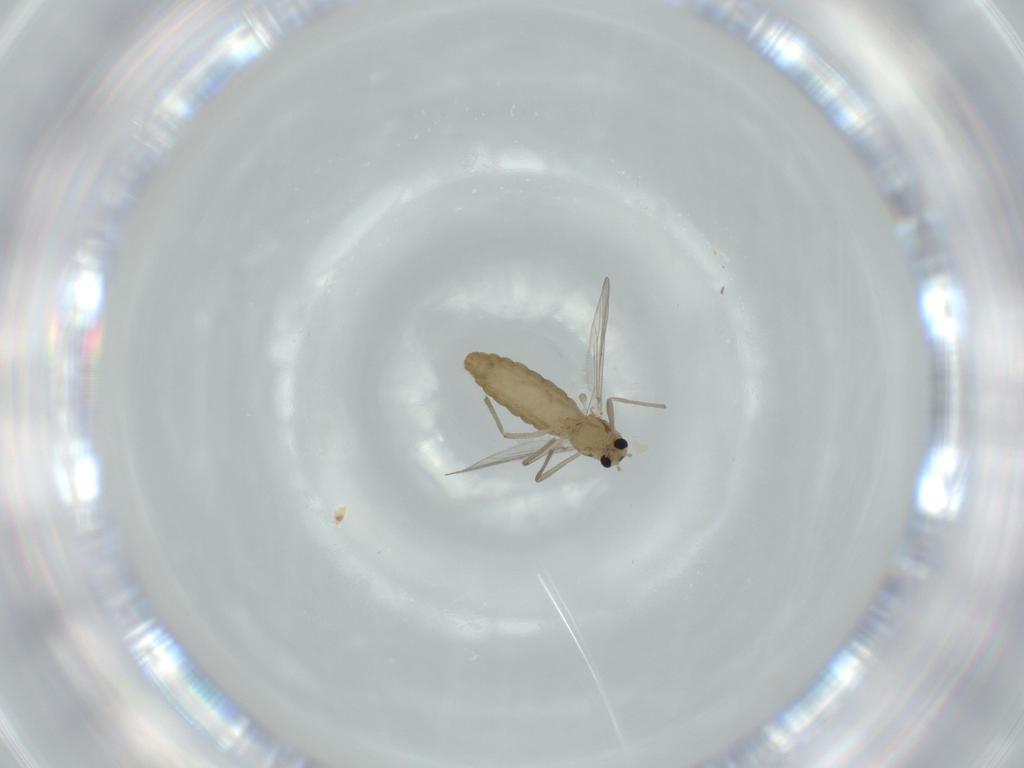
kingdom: Animalia
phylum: Arthropoda
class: Insecta
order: Diptera
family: Chironomidae
